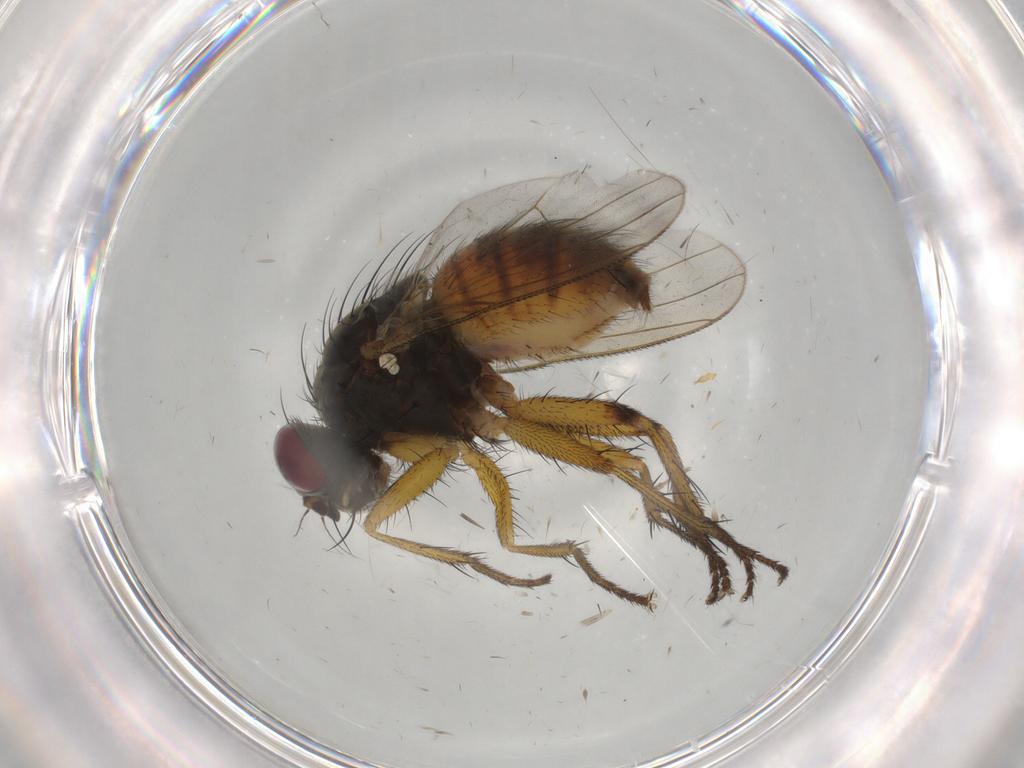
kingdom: Animalia
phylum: Arthropoda
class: Insecta
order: Diptera
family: Muscidae
